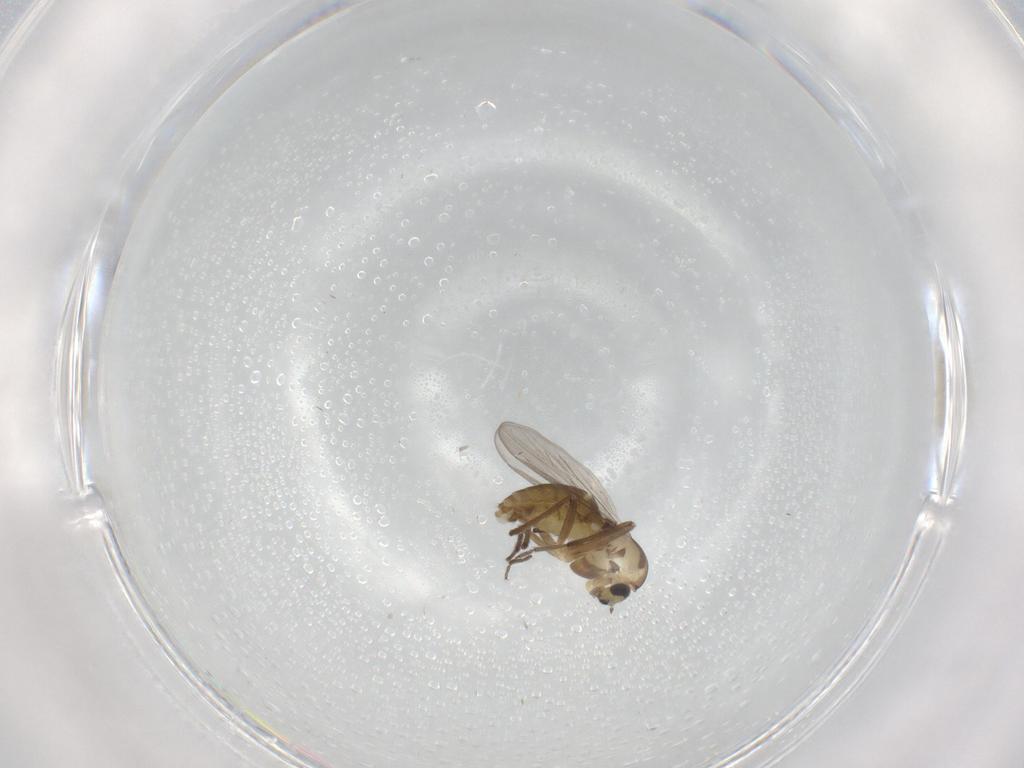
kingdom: Animalia
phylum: Arthropoda
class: Insecta
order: Diptera
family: Chironomidae
